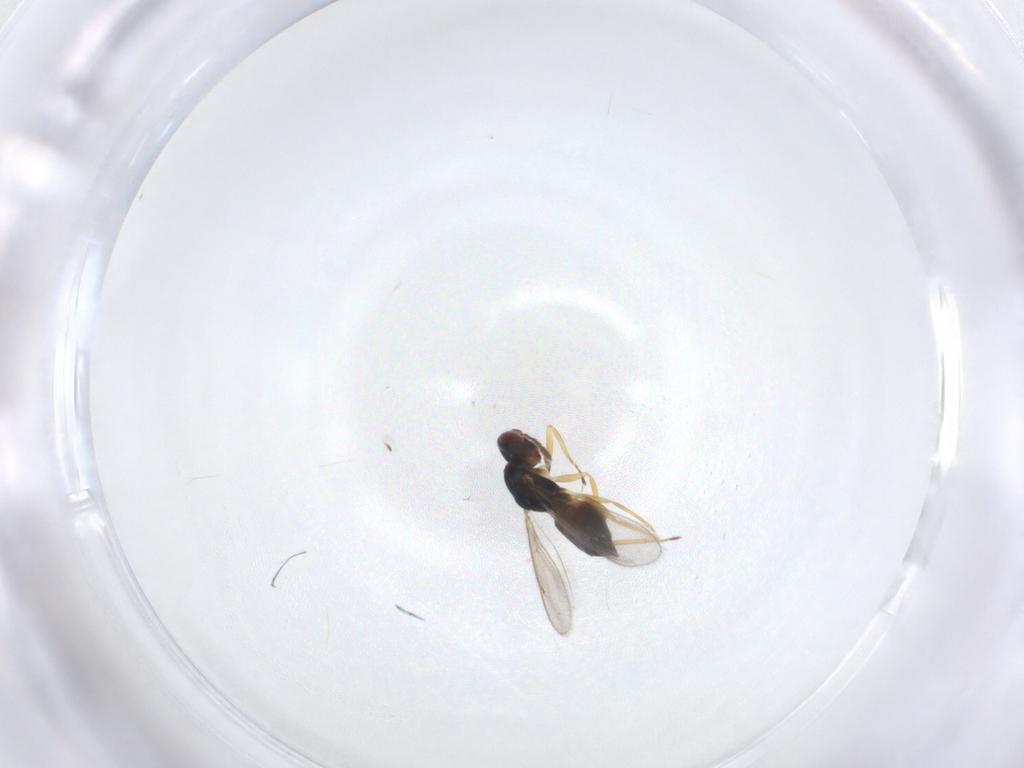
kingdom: Animalia
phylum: Arthropoda
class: Insecta
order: Hymenoptera
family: Eulophidae
